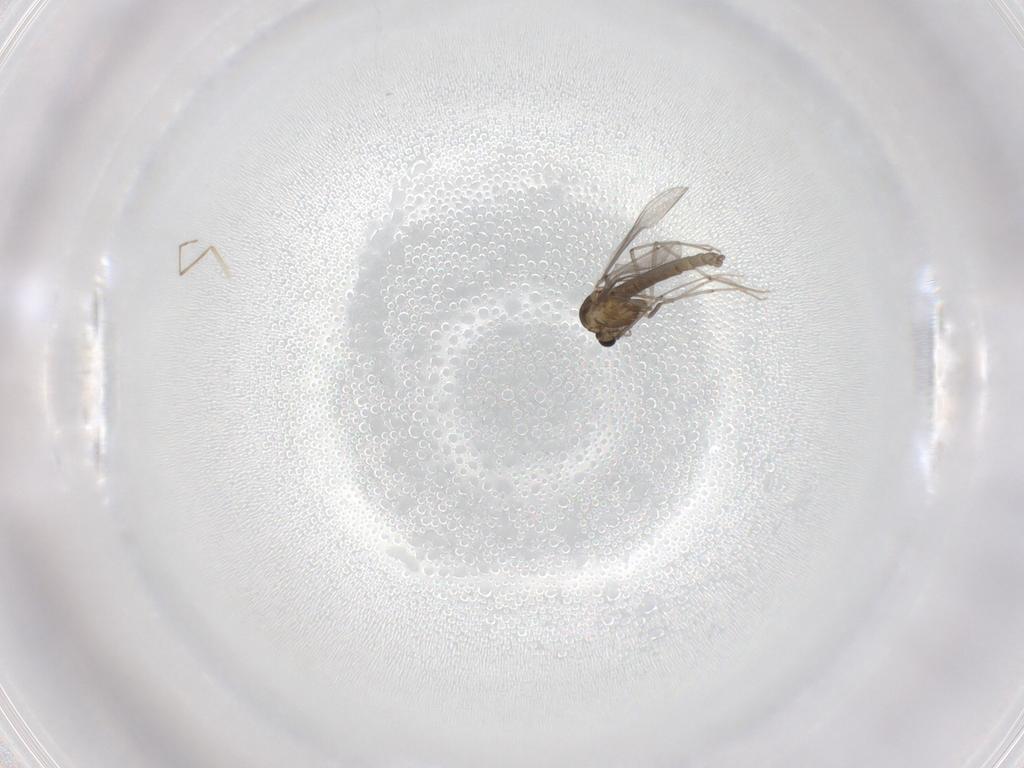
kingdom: Animalia
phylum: Arthropoda
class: Insecta
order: Diptera
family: Chironomidae
